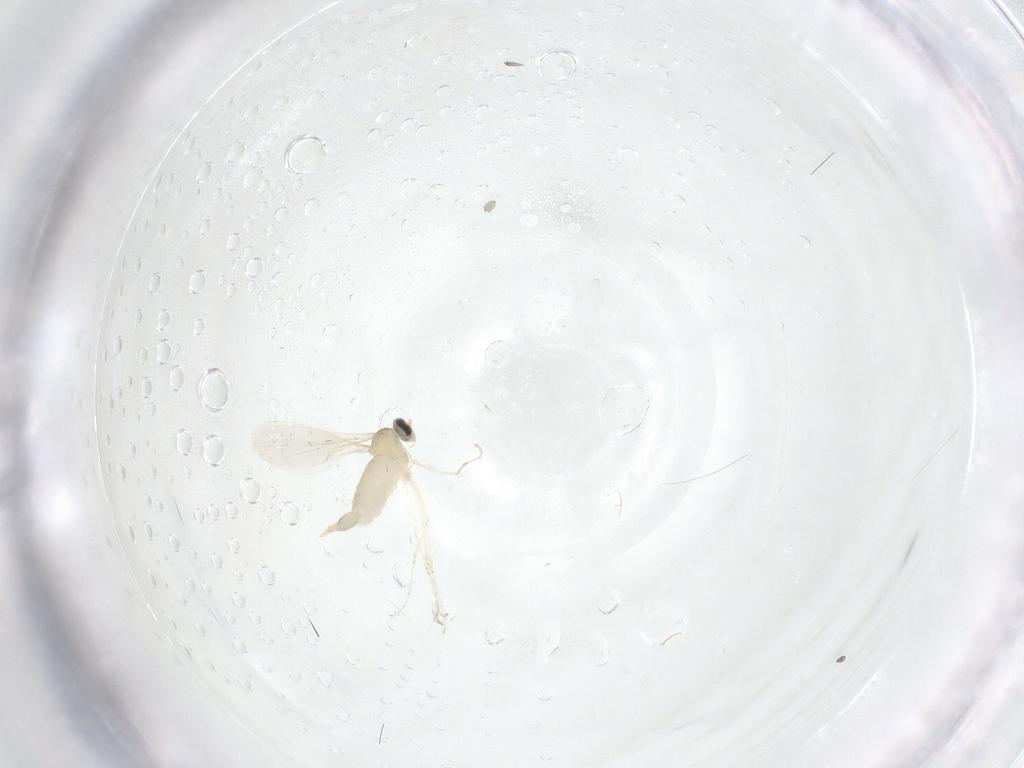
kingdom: Animalia
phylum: Arthropoda
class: Insecta
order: Diptera
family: Cecidomyiidae
